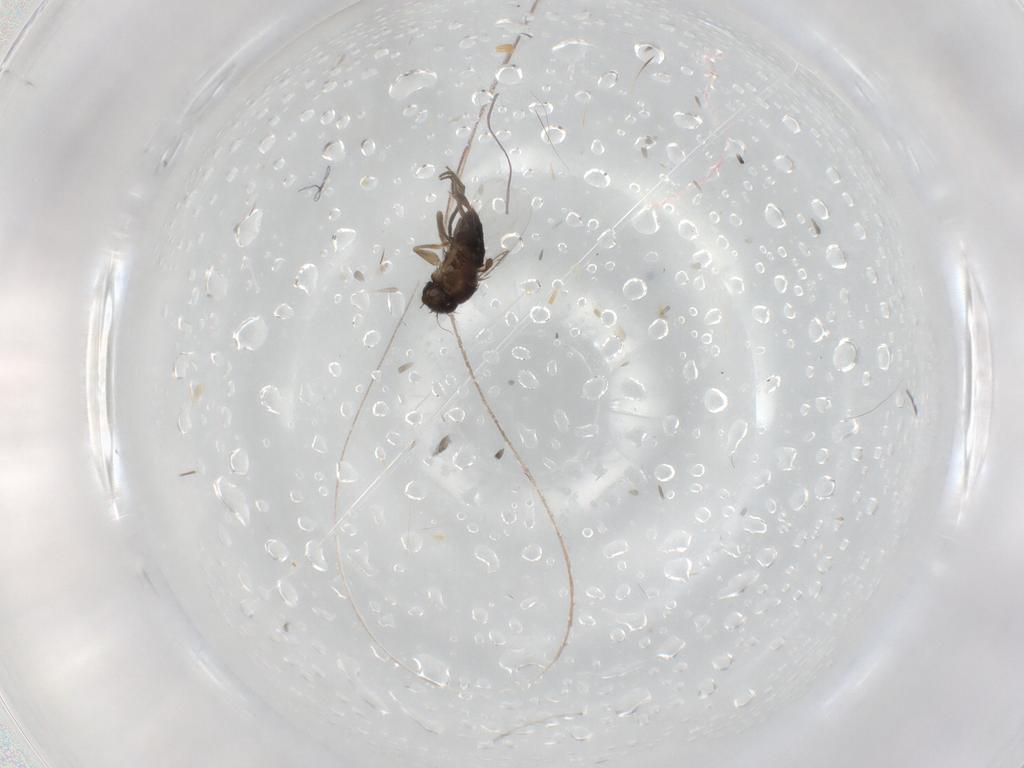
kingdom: Animalia
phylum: Arthropoda
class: Insecta
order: Diptera
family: Phoridae
